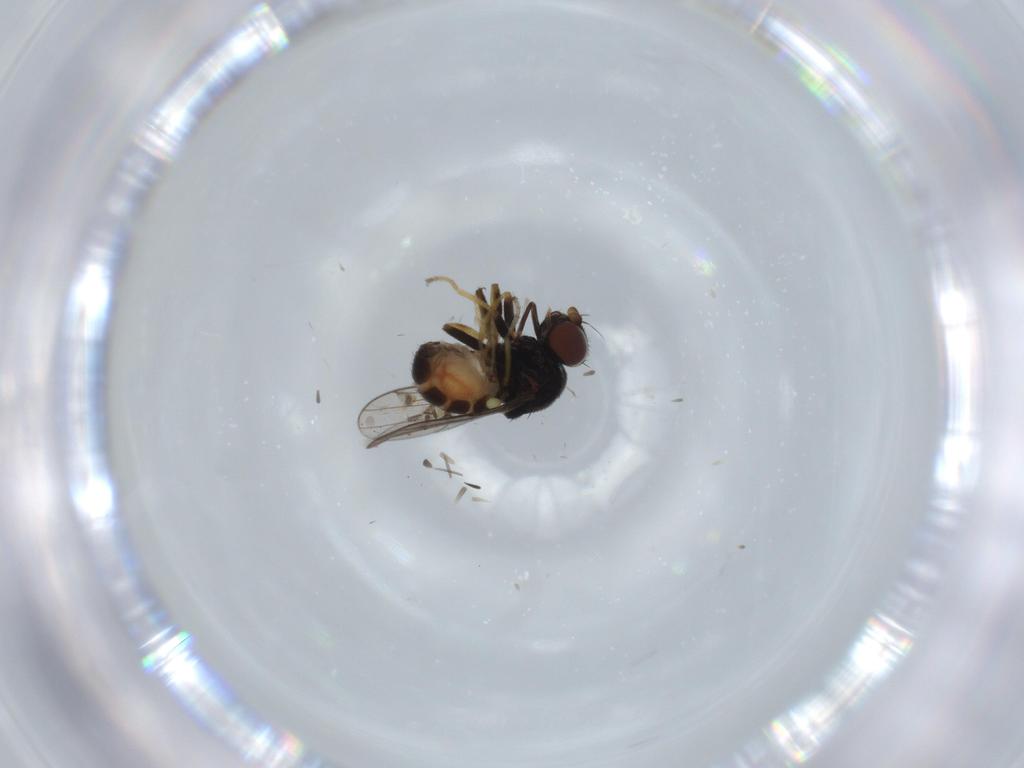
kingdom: Animalia
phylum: Arthropoda
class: Insecta
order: Diptera
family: Chloropidae
